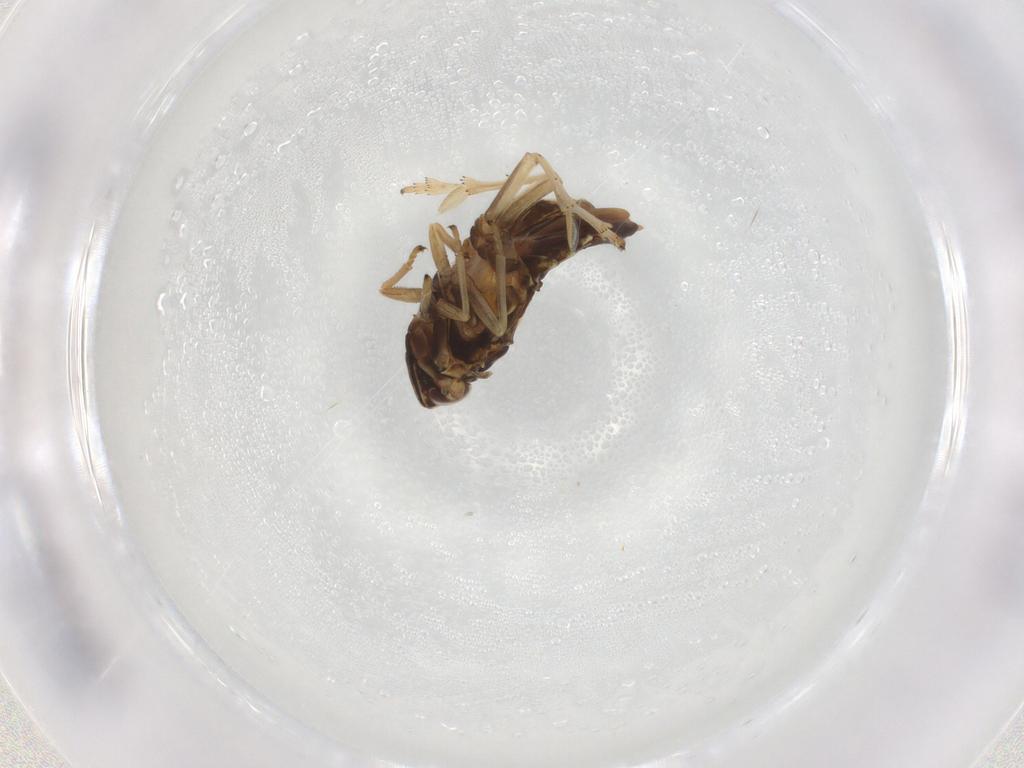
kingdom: Animalia
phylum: Arthropoda
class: Insecta
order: Hemiptera
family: Delphacidae
